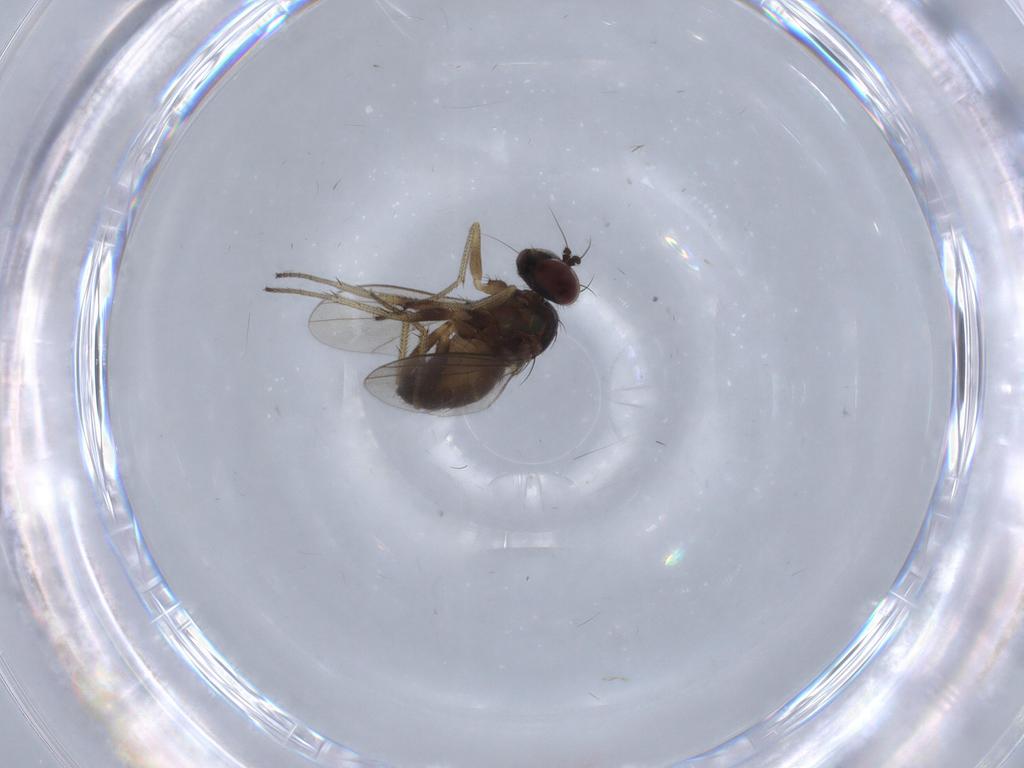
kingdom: Animalia
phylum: Arthropoda
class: Insecta
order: Diptera
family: Dolichopodidae
